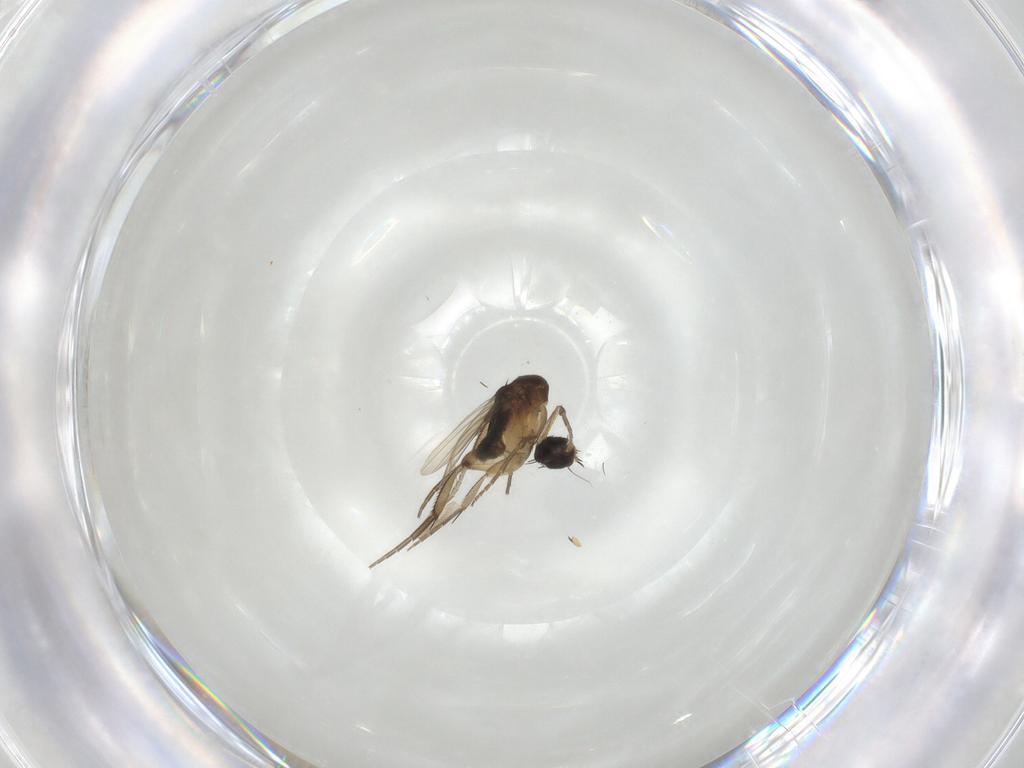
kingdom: Animalia
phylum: Arthropoda
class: Insecta
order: Diptera
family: Phoridae
